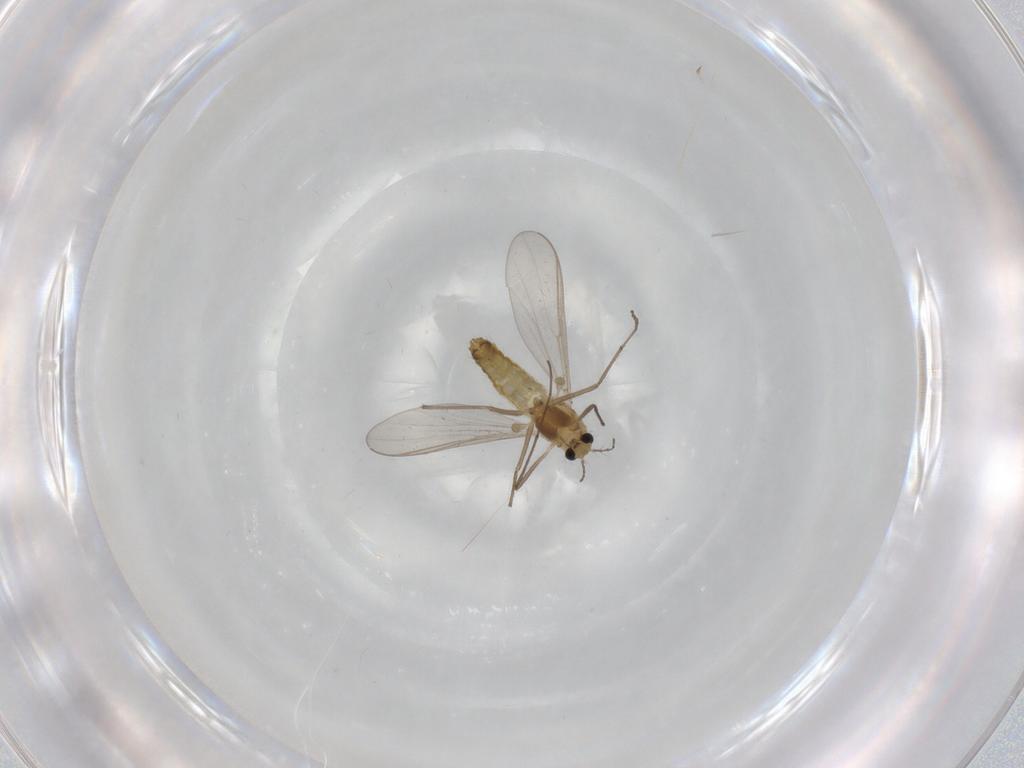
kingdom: Animalia
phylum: Arthropoda
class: Insecta
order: Diptera
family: Chironomidae
